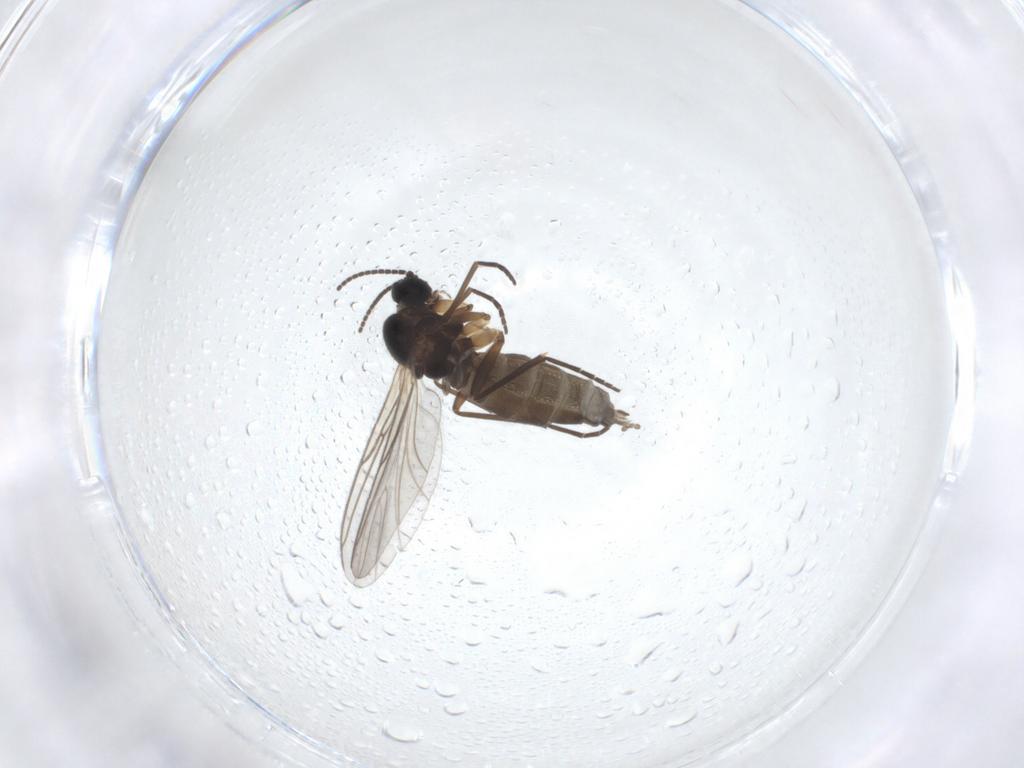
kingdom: Animalia
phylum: Arthropoda
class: Insecta
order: Diptera
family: Sciaridae
